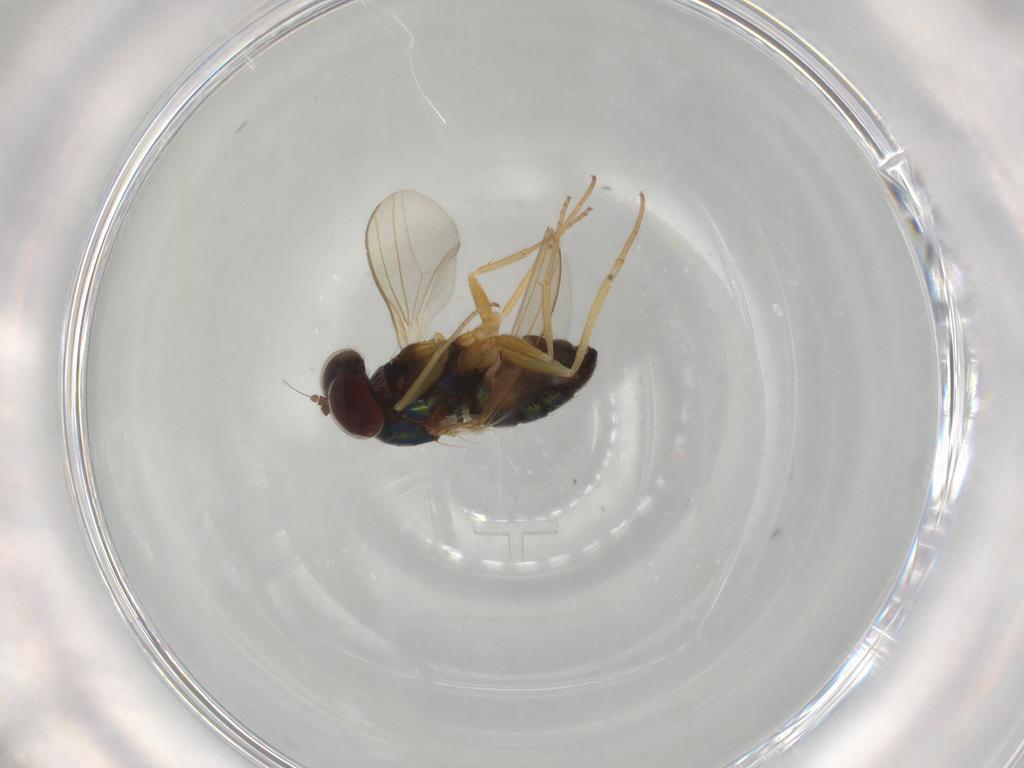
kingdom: Animalia
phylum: Arthropoda
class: Insecta
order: Diptera
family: Dolichopodidae
